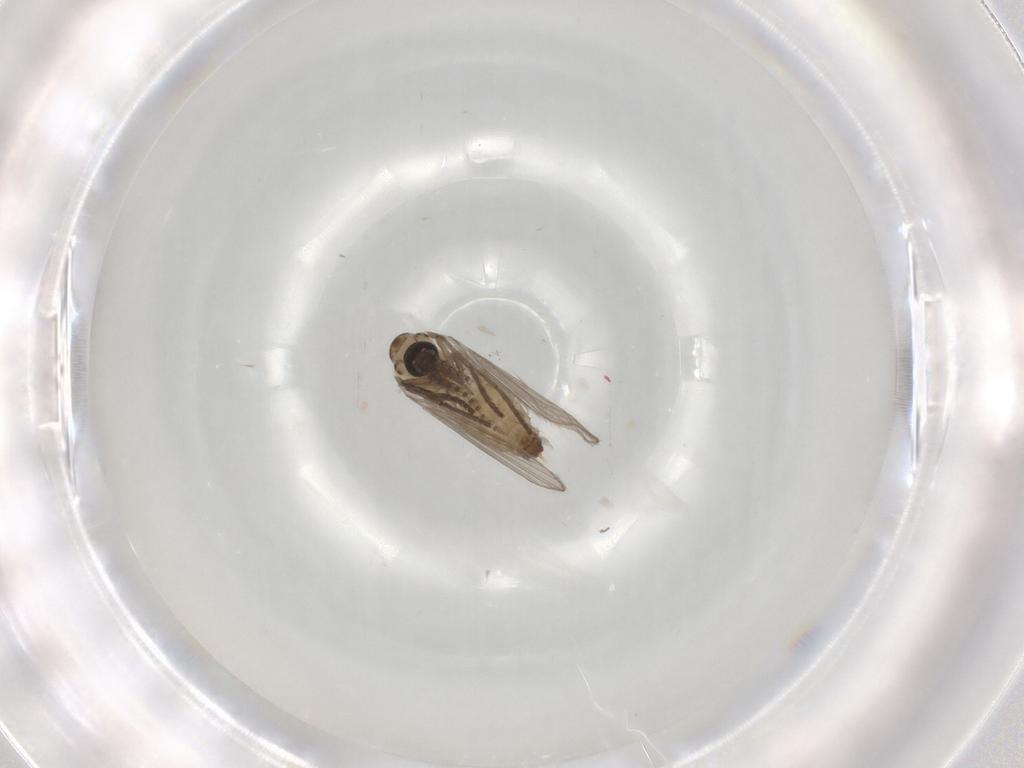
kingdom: Animalia
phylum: Arthropoda
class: Insecta
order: Diptera
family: Psychodidae
